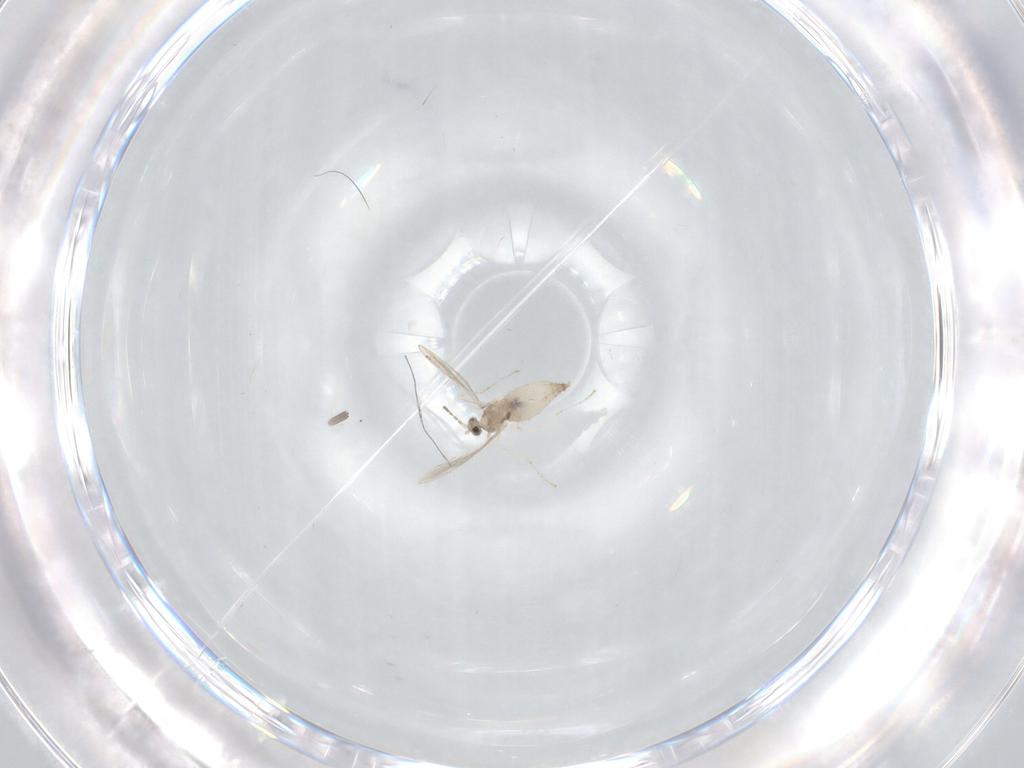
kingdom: Animalia
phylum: Arthropoda
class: Insecta
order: Diptera
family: Cecidomyiidae
